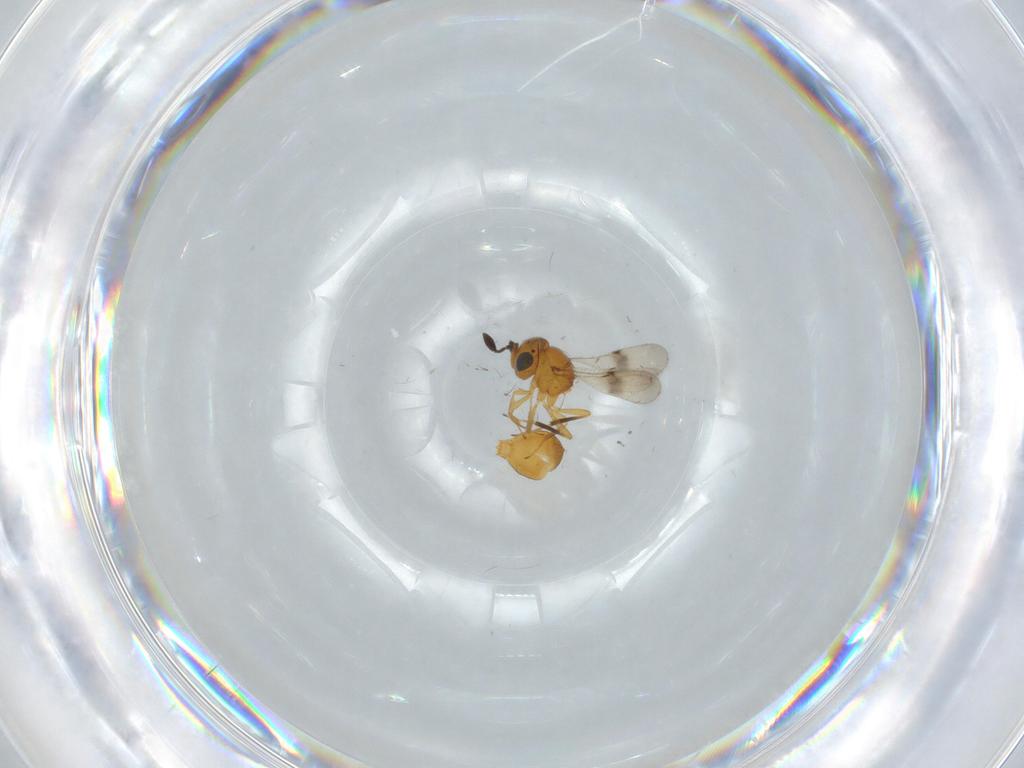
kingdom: Animalia
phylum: Arthropoda
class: Insecta
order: Hymenoptera
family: Scelionidae
